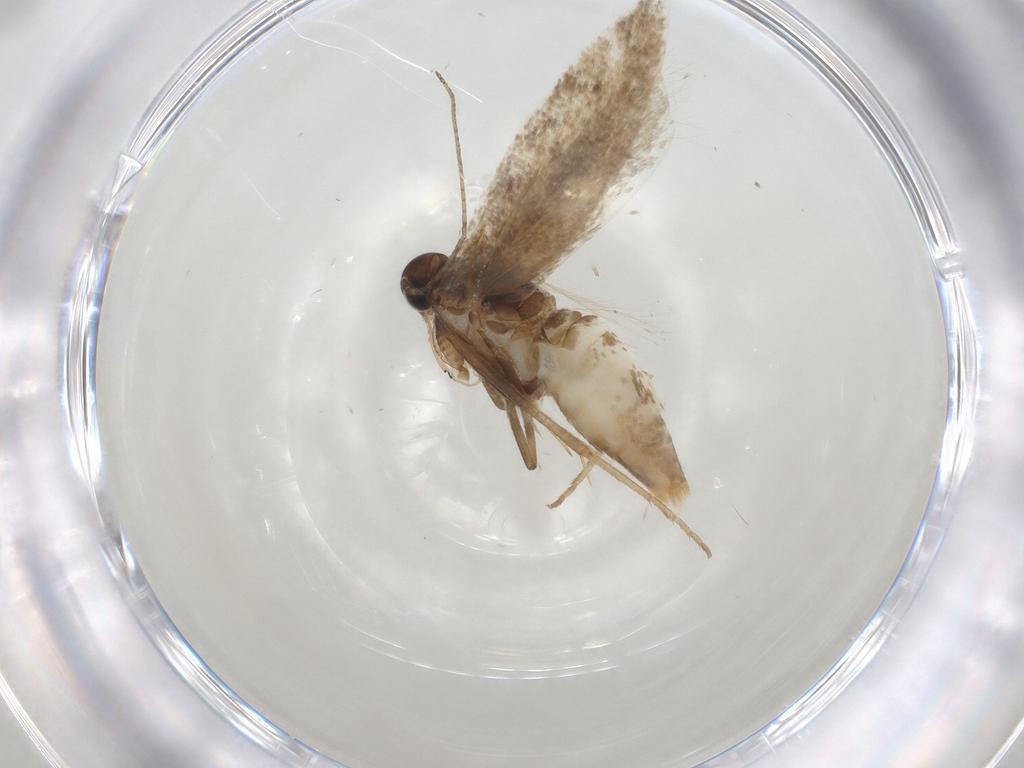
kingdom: Animalia
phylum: Arthropoda
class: Insecta
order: Lepidoptera
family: Gelechiidae
